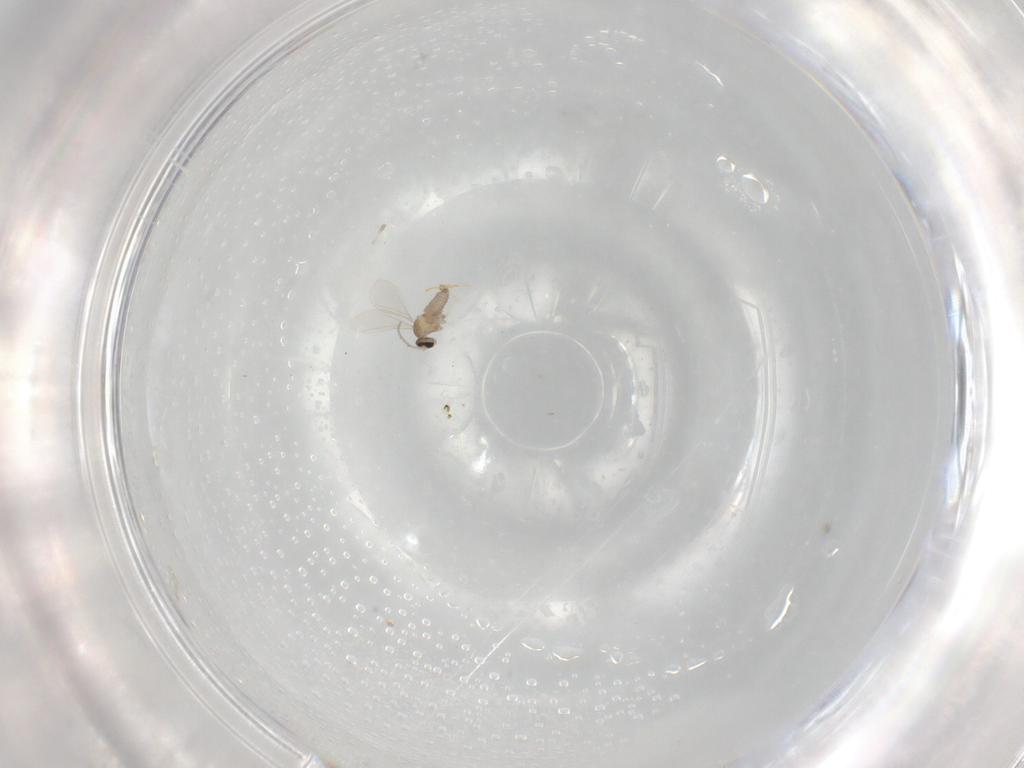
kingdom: Animalia
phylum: Arthropoda
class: Insecta
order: Diptera
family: Cecidomyiidae
